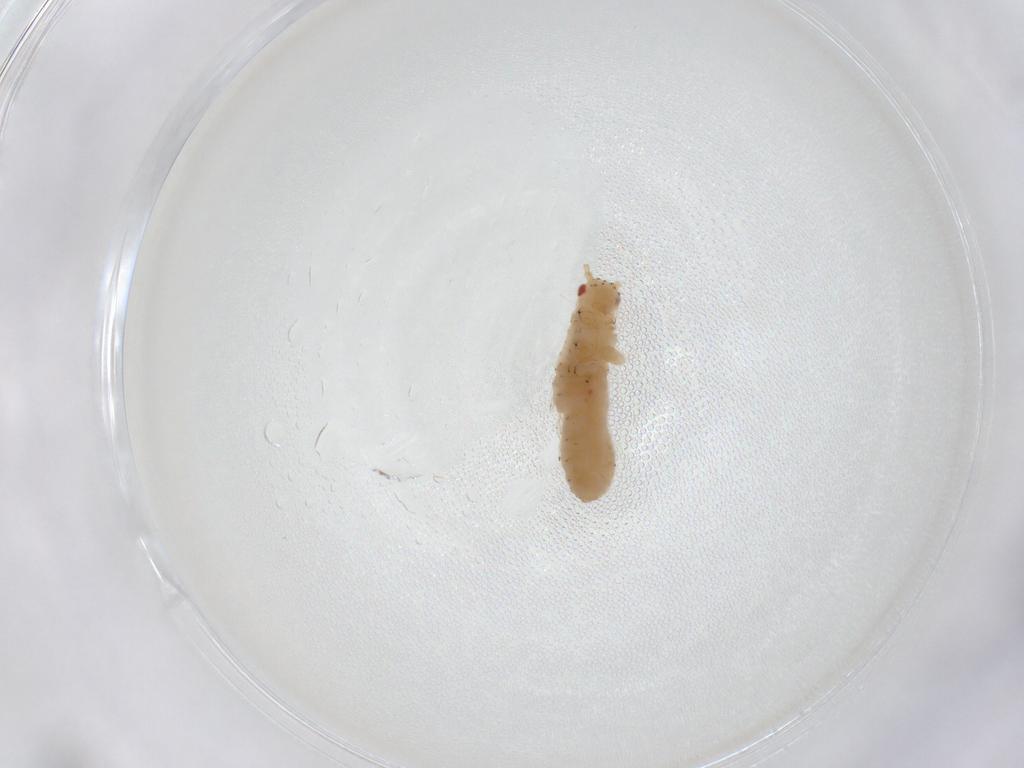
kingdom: Animalia
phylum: Arthropoda
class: Insecta
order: Hemiptera
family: Aphididae
